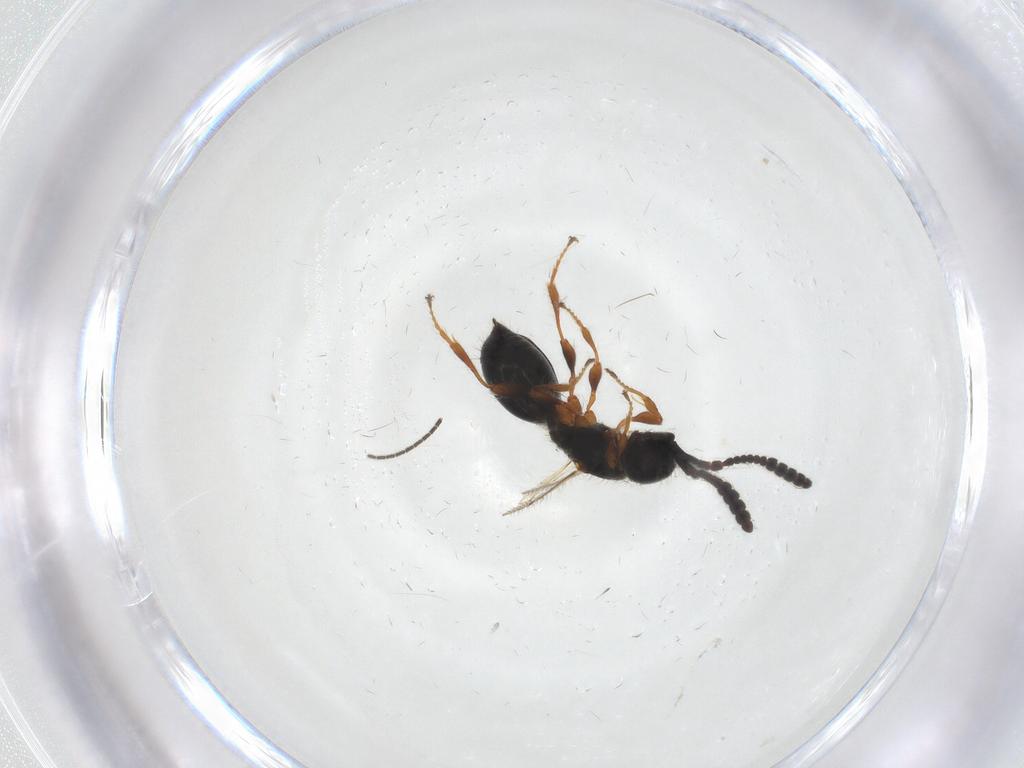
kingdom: Animalia
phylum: Arthropoda
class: Insecta
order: Hymenoptera
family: Diapriidae
